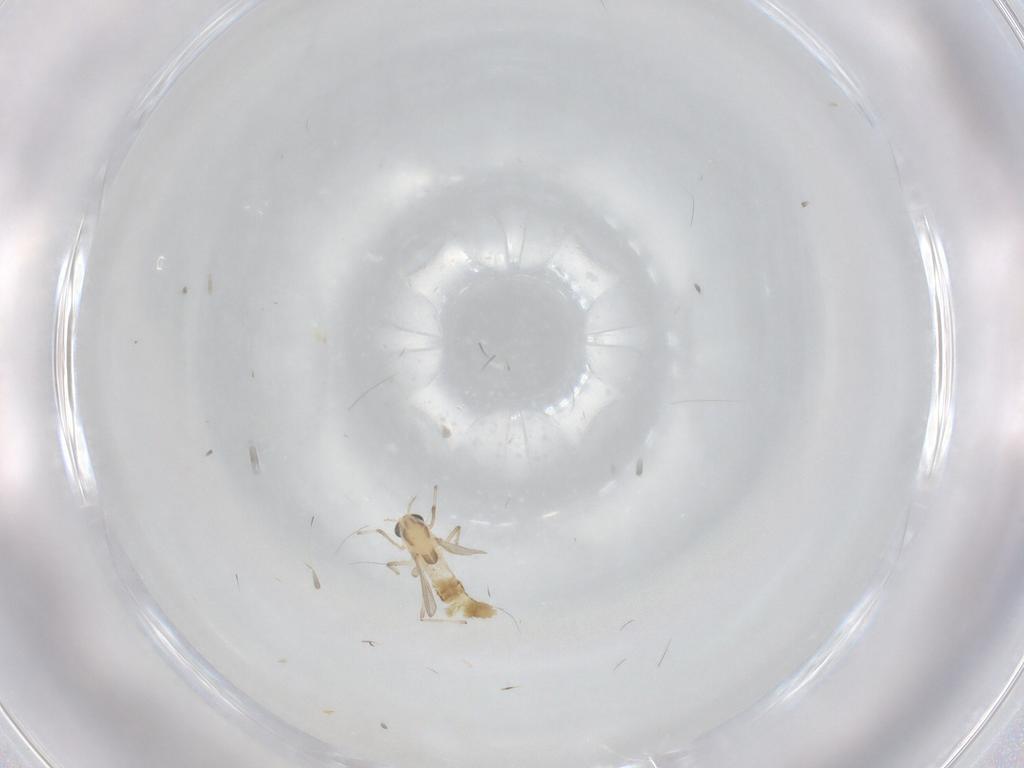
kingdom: Animalia
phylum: Arthropoda
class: Insecta
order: Diptera
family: Chironomidae
